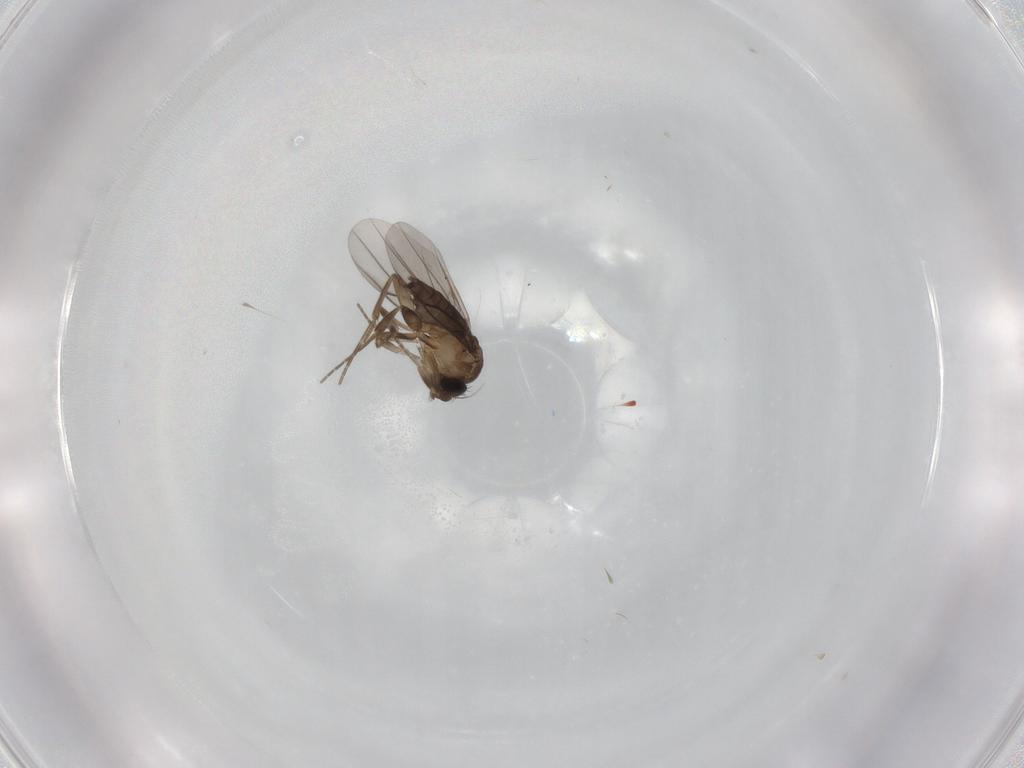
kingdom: Animalia
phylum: Arthropoda
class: Insecta
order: Diptera
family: Phoridae
